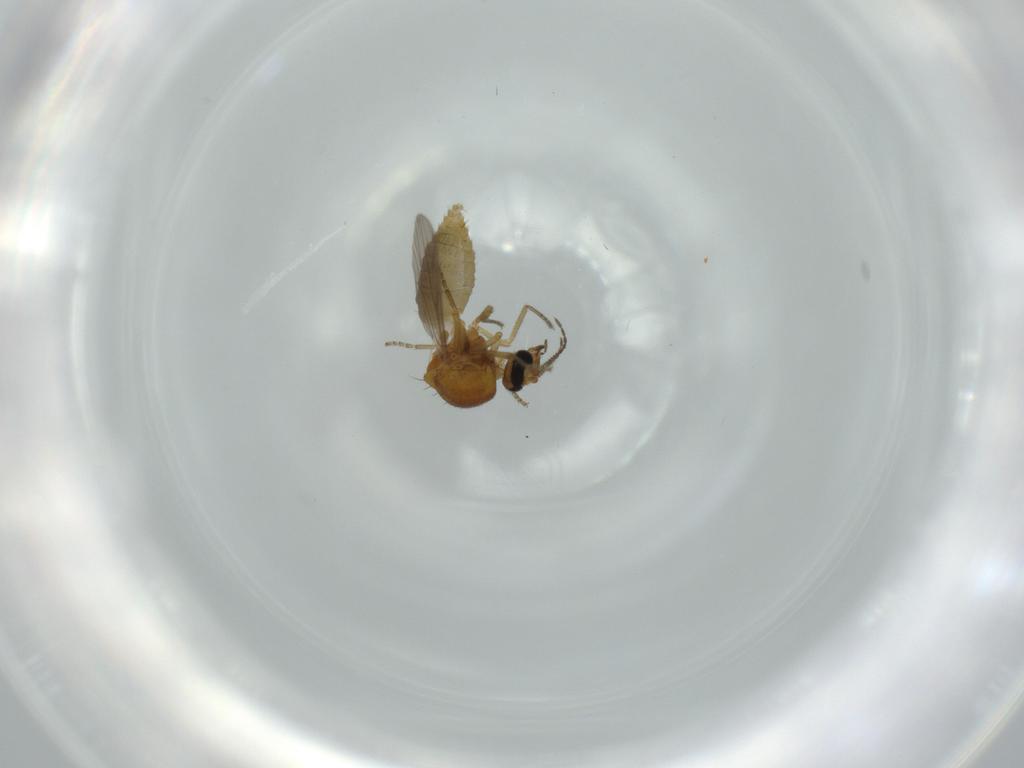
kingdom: Animalia
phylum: Arthropoda
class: Insecta
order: Diptera
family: Ceratopogonidae
